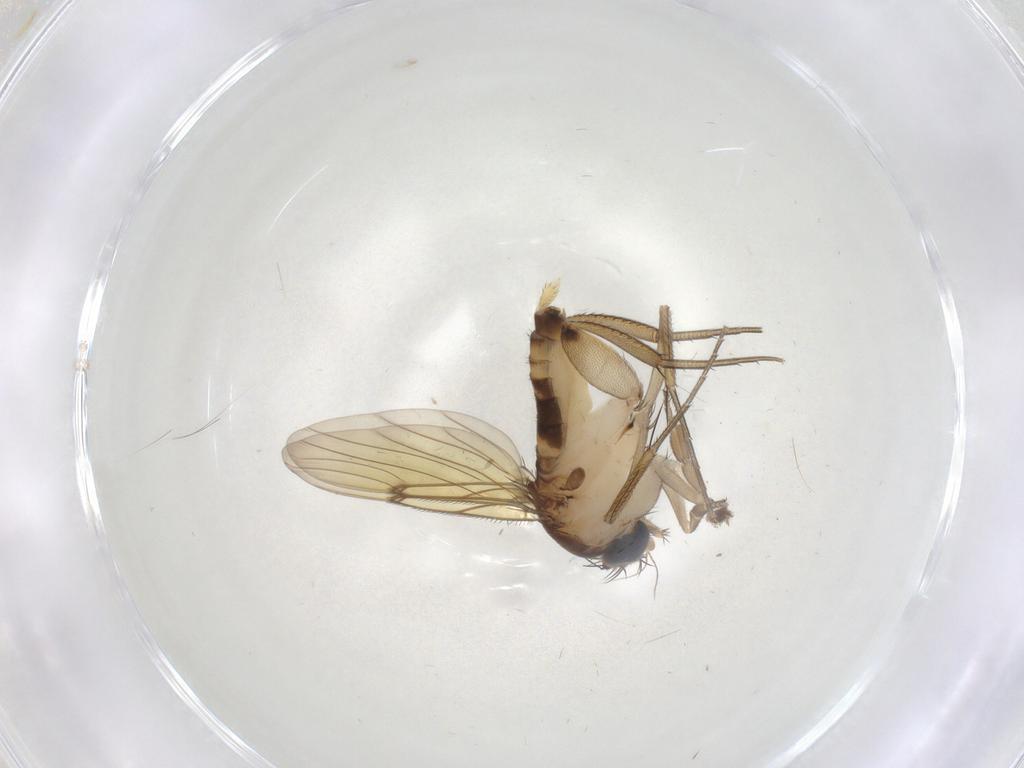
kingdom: Animalia
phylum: Arthropoda
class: Insecta
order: Diptera
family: Phoridae
